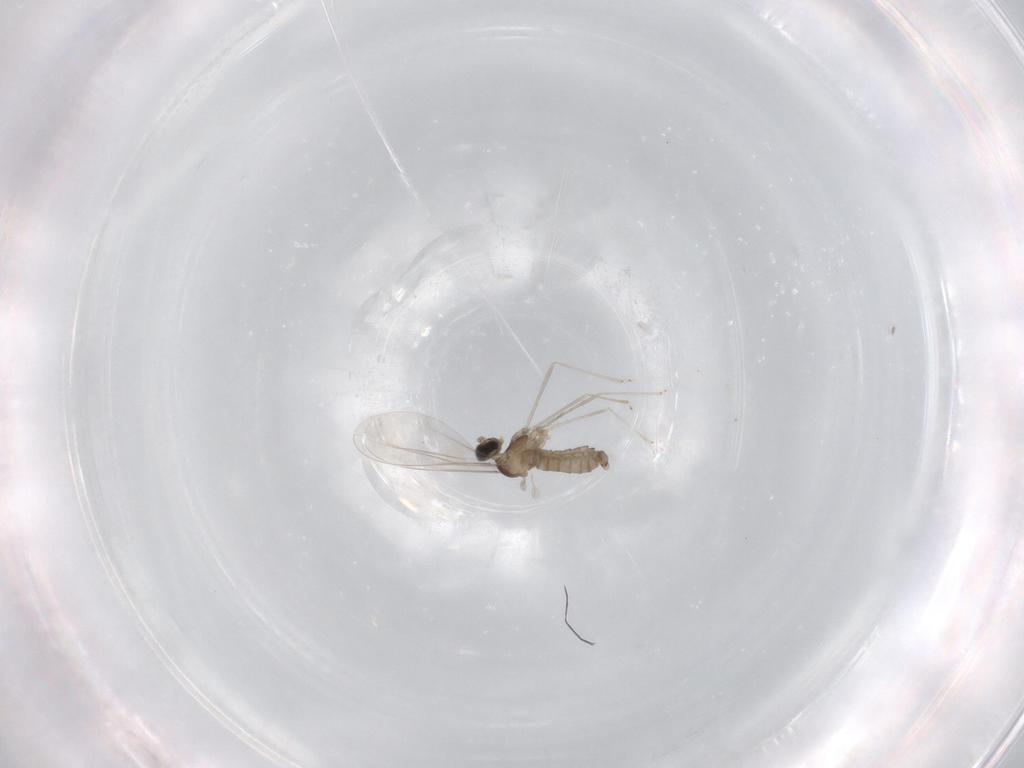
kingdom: Animalia
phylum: Arthropoda
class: Insecta
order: Diptera
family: Cecidomyiidae
